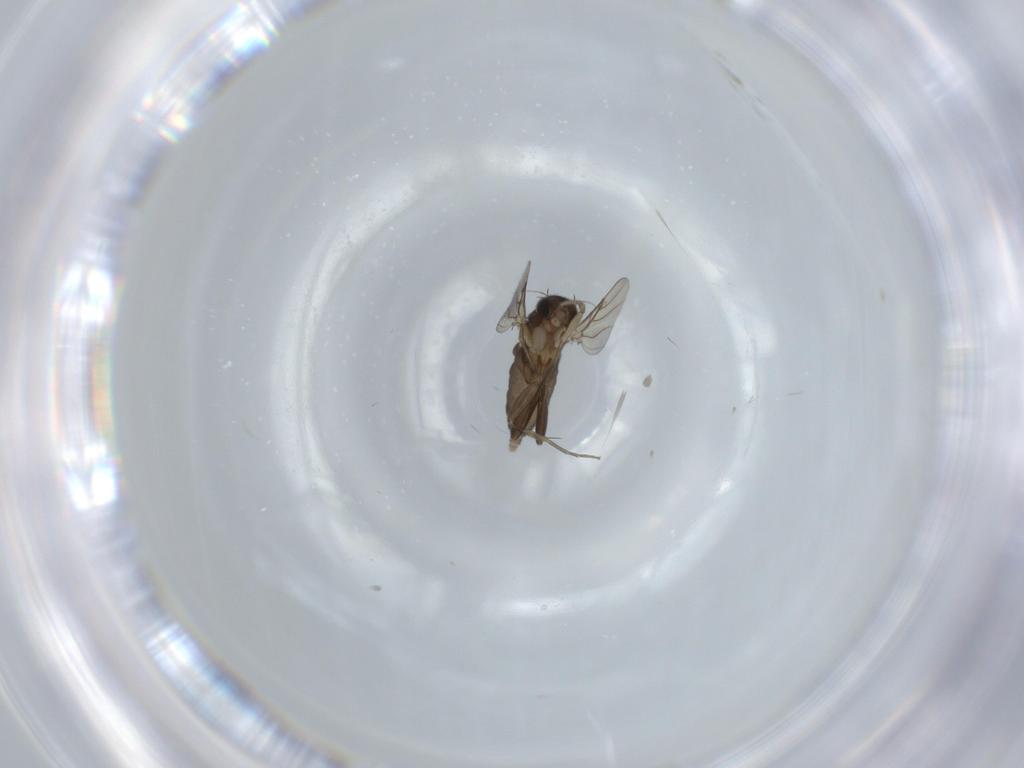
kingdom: Animalia
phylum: Arthropoda
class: Insecta
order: Diptera
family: Phoridae
